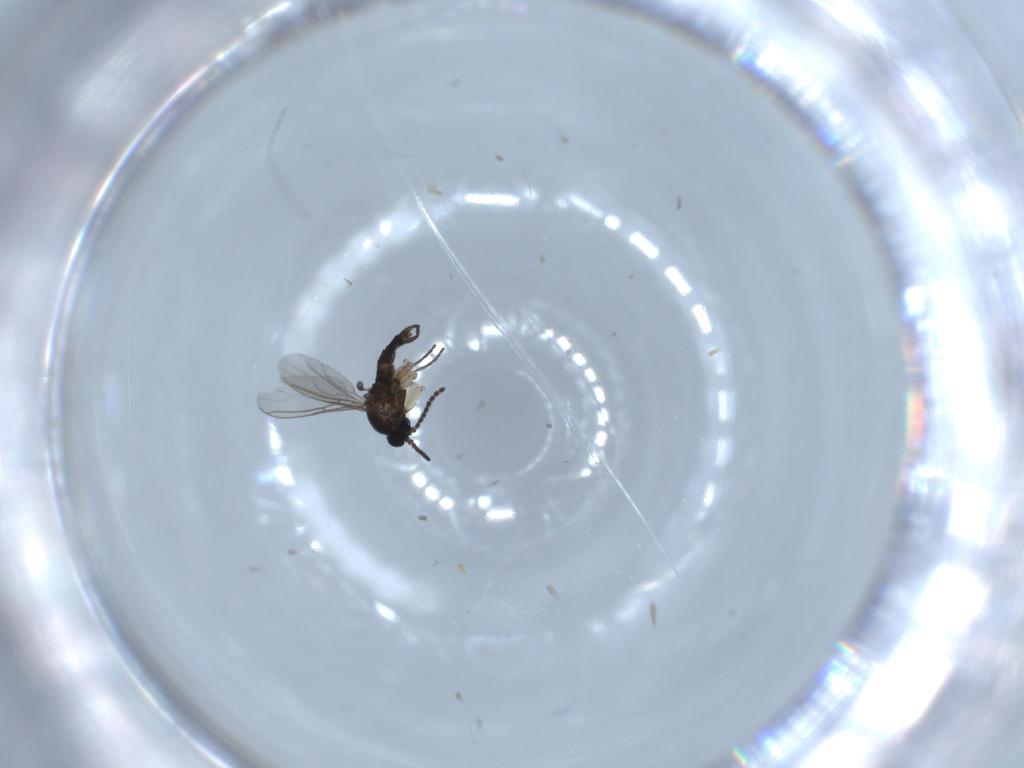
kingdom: Animalia
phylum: Arthropoda
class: Insecta
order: Diptera
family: Sciaridae
